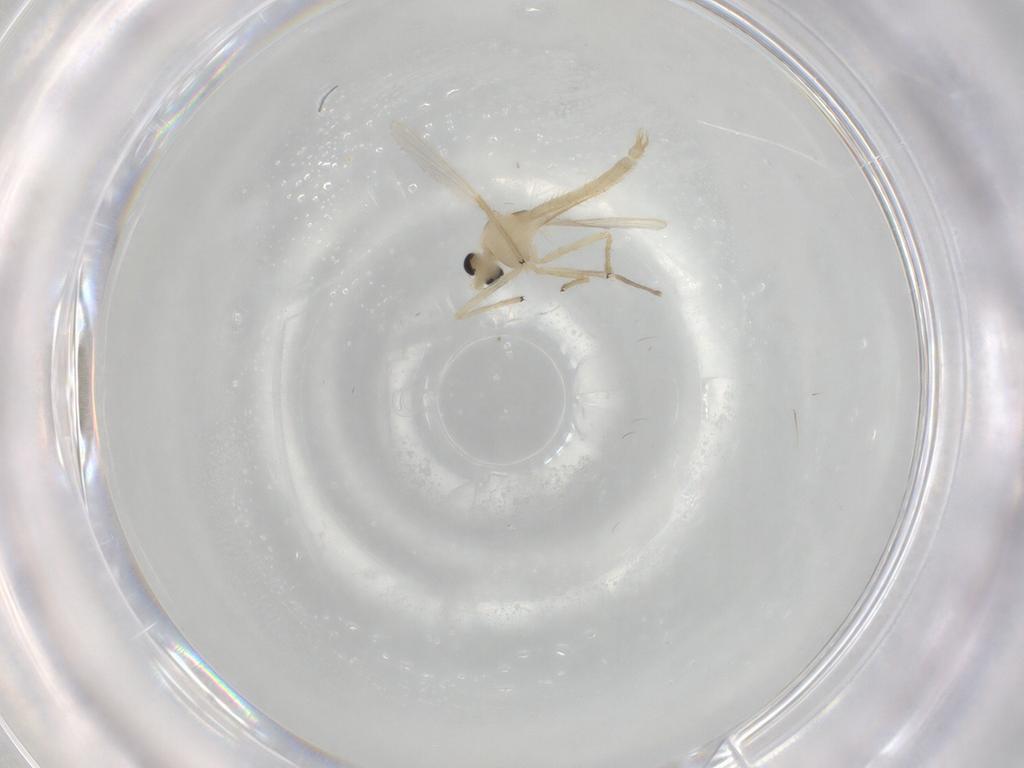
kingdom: Animalia
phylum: Arthropoda
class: Insecta
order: Diptera
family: Chironomidae
